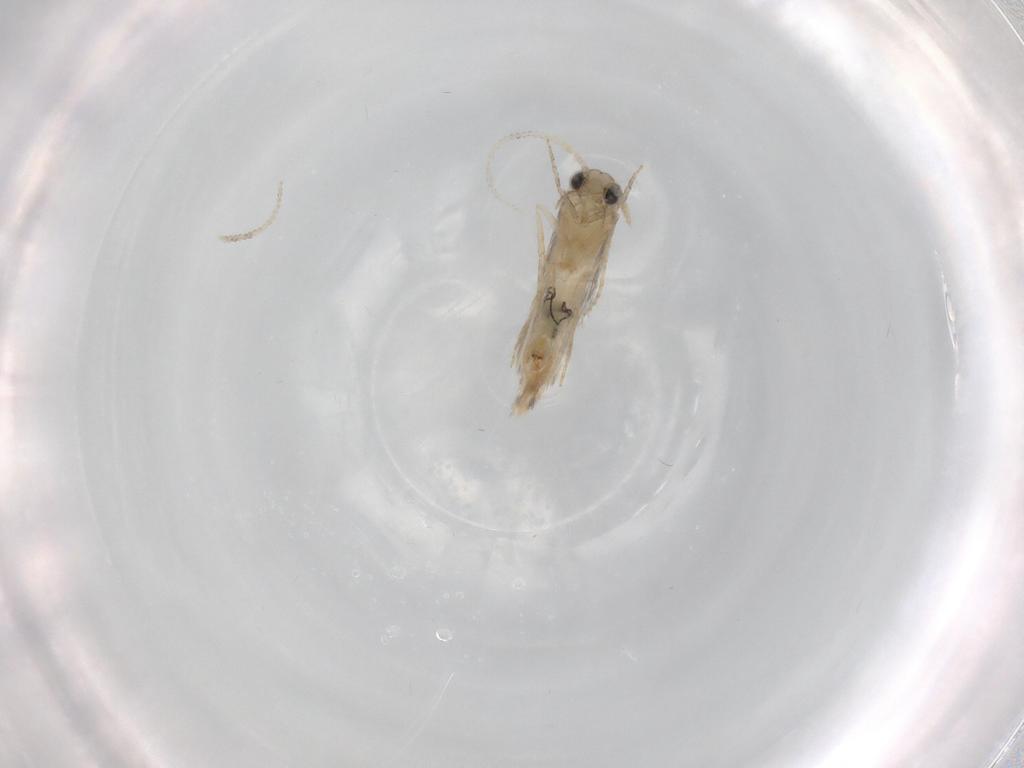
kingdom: Animalia
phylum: Arthropoda
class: Insecta
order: Trichoptera
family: Hydroptilidae
